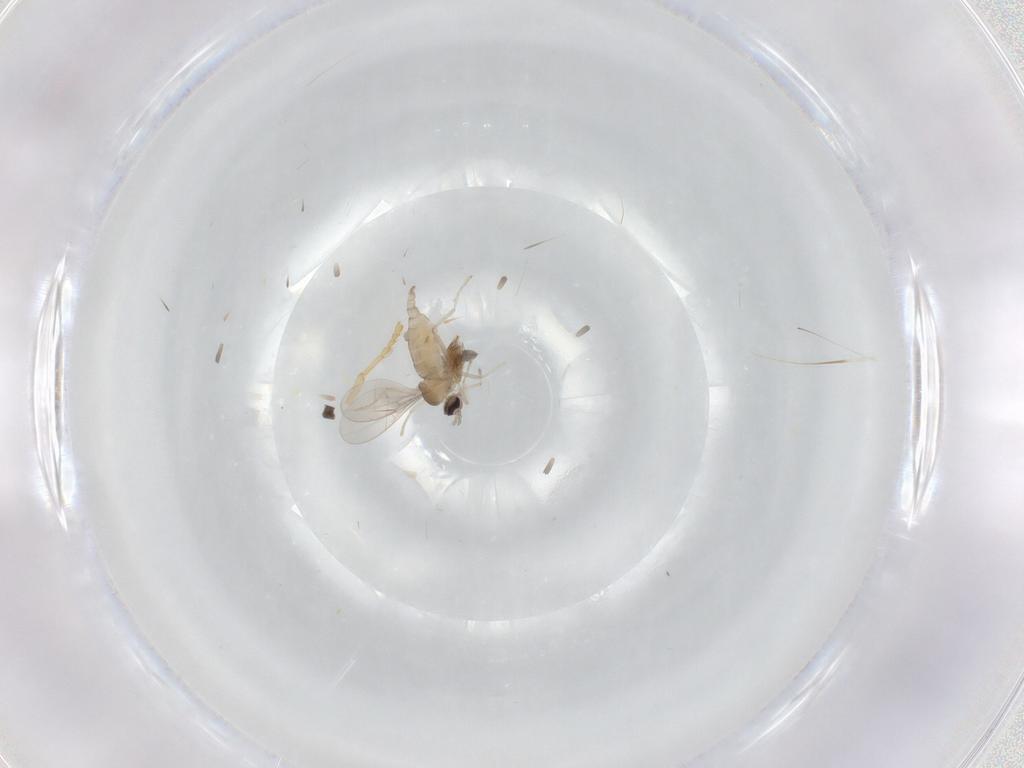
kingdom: Animalia
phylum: Arthropoda
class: Insecta
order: Diptera
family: Cecidomyiidae
